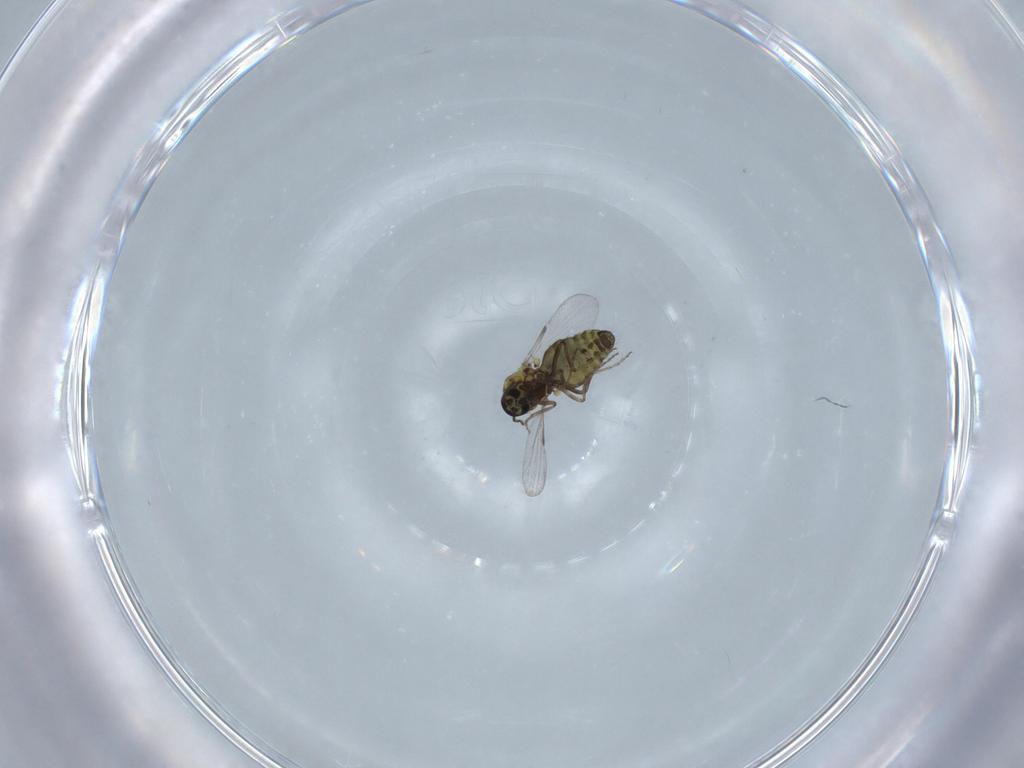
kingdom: Animalia
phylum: Arthropoda
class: Insecta
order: Diptera
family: Ceratopogonidae
